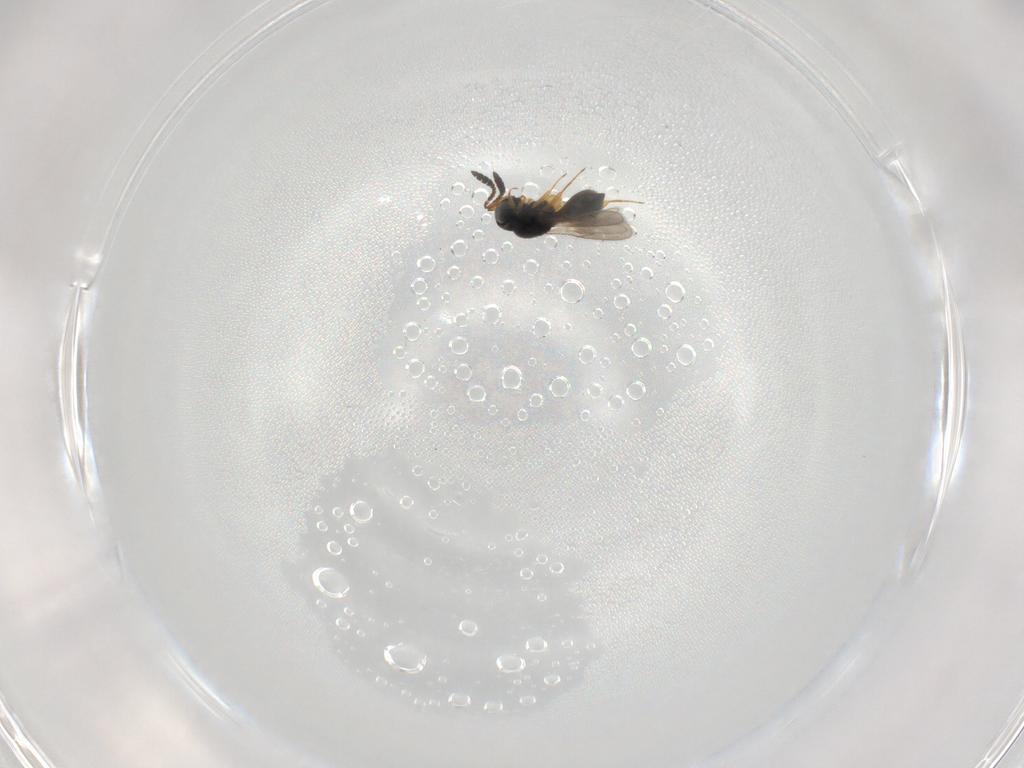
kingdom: Animalia
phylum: Arthropoda
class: Insecta
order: Hymenoptera
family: Scelionidae
